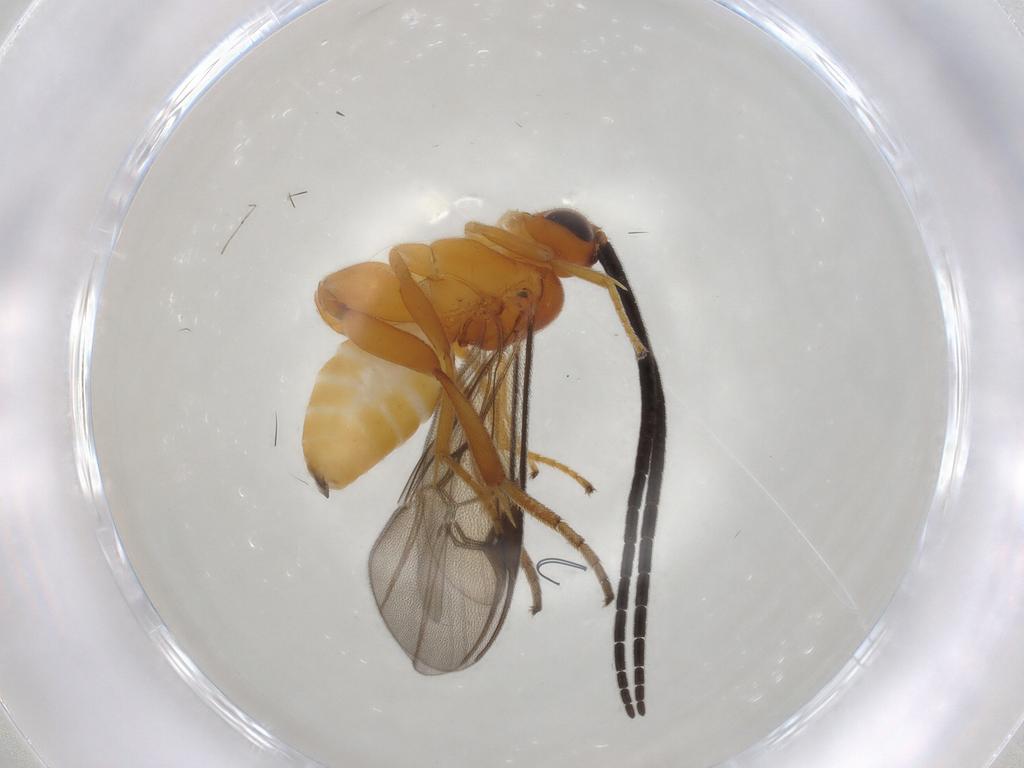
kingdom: Animalia
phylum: Arthropoda
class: Insecta
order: Hymenoptera
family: Braconidae
